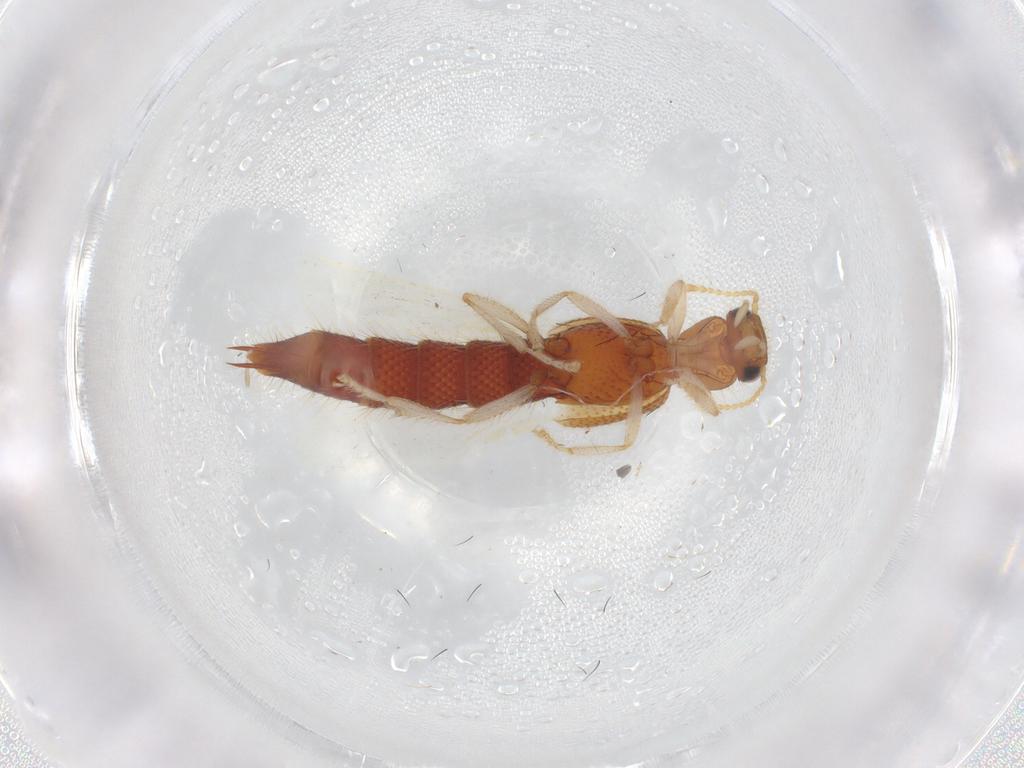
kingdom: Animalia
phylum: Arthropoda
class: Insecta
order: Coleoptera
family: Staphylinidae
